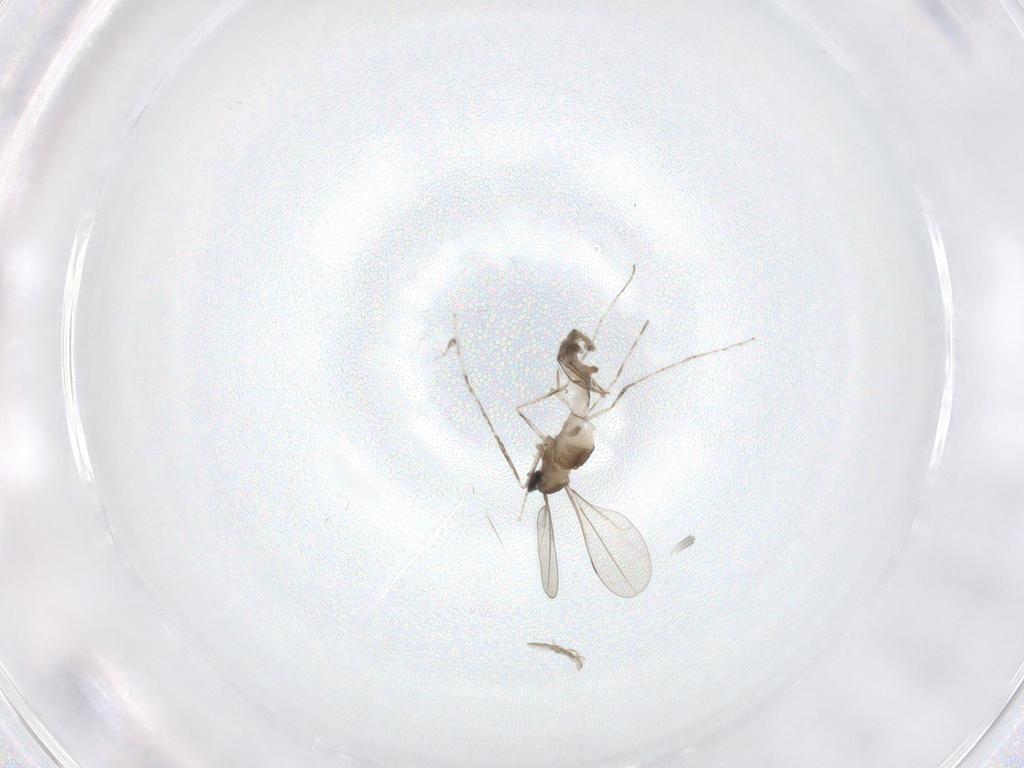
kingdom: Animalia
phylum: Arthropoda
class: Insecta
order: Diptera
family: Cecidomyiidae
